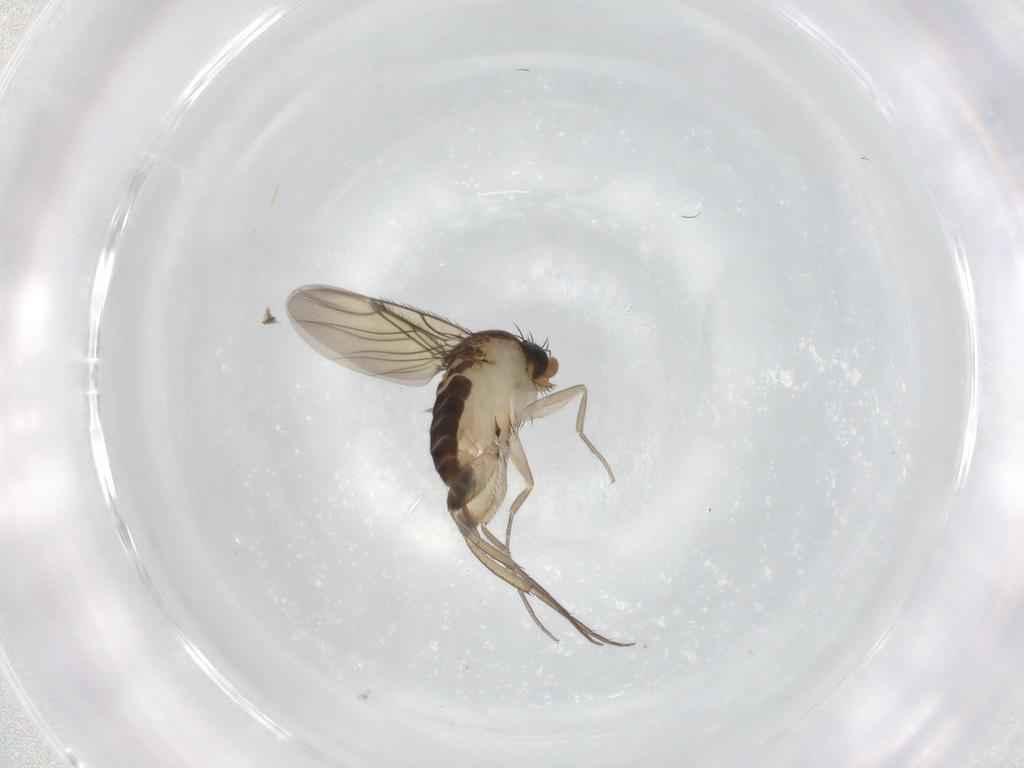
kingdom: Animalia
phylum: Arthropoda
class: Insecta
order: Diptera
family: Phoridae
